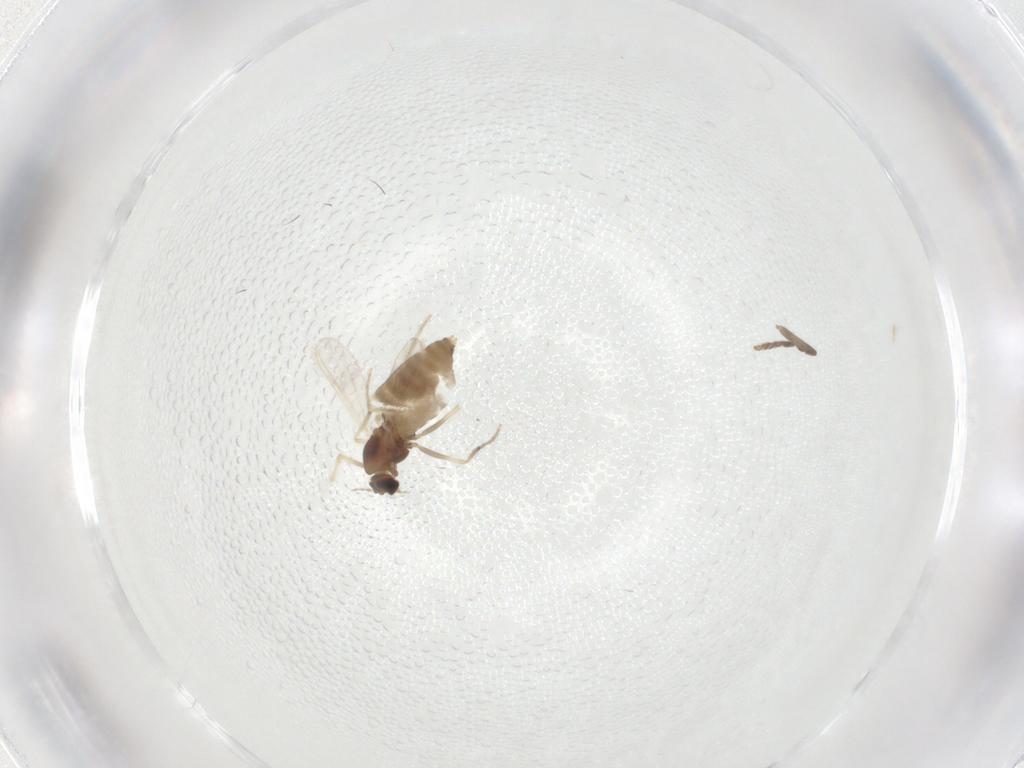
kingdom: Animalia
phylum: Arthropoda
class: Insecta
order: Diptera
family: Chironomidae
